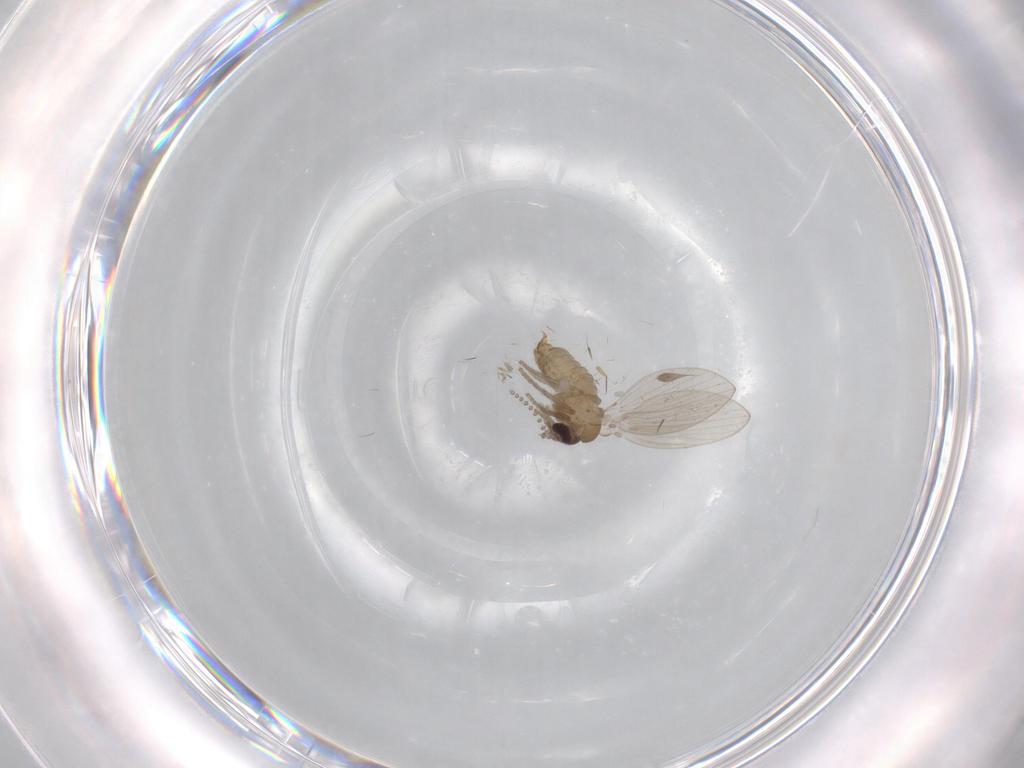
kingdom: Animalia
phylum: Arthropoda
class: Insecta
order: Diptera
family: Psychodidae
